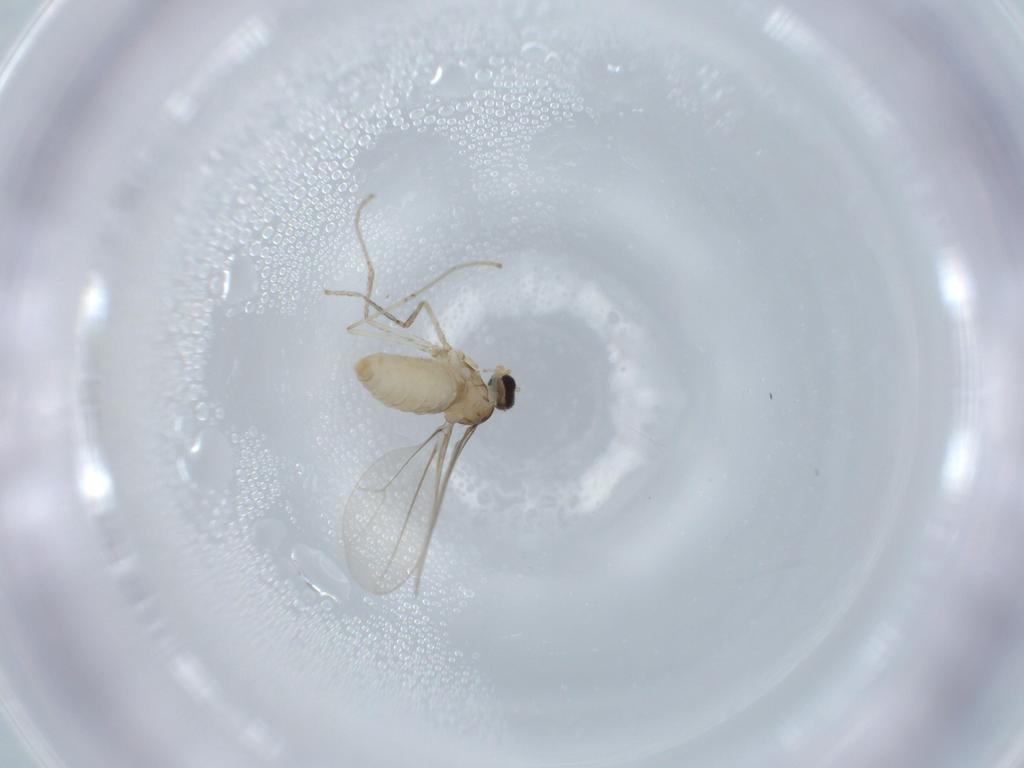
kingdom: Animalia
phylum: Arthropoda
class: Insecta
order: Diptera
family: Cecidomyiidae
